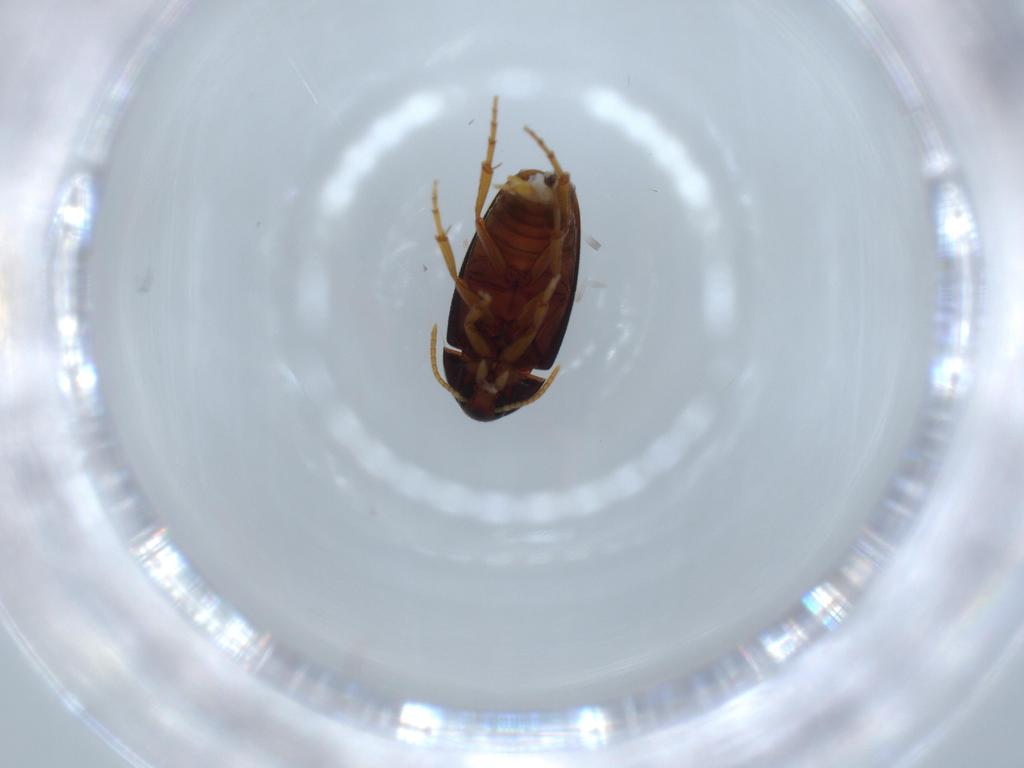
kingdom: Animalia
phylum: Arthropoda
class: Insecta
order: Coleoptera
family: Scraptiidae
